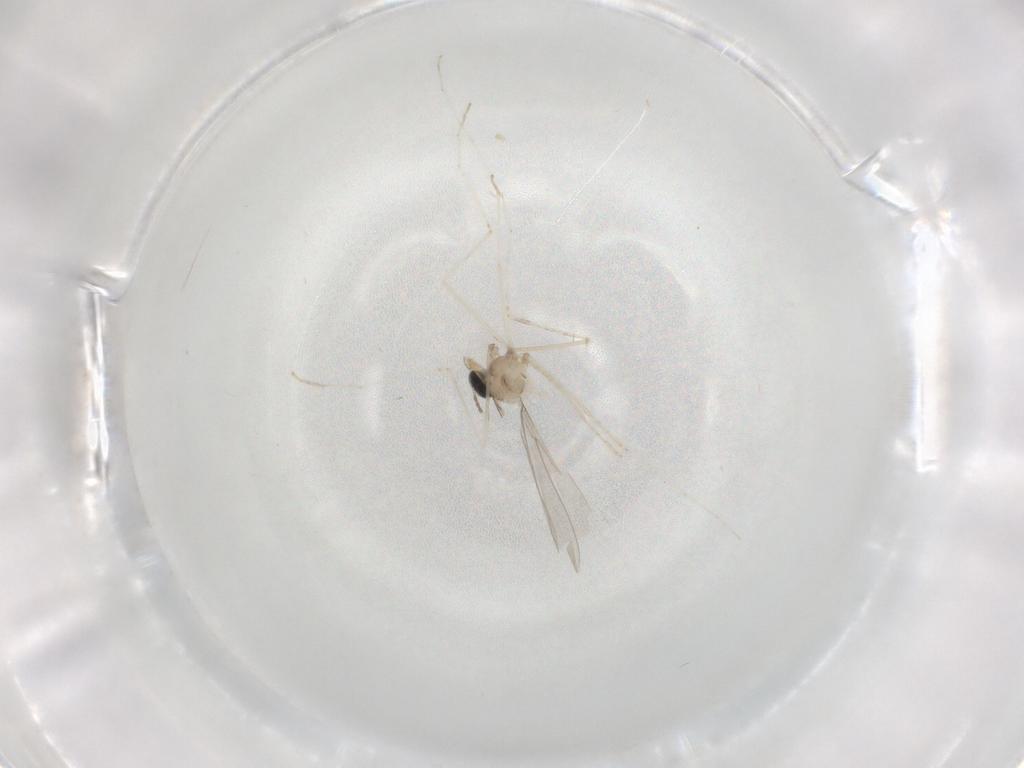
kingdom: Animalia
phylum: Arthropoda
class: Insecta
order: Diptera
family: Cecidomyiidae
